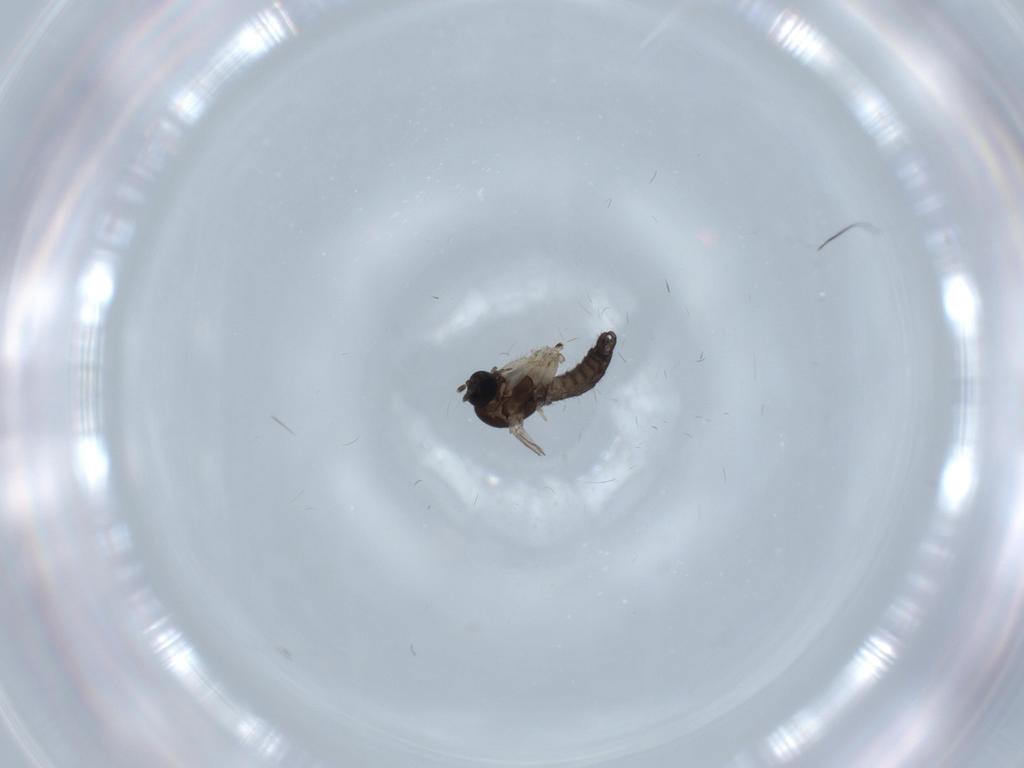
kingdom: Animalia
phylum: Arthropoda
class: Insecta
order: Diptera
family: Sciaridae
